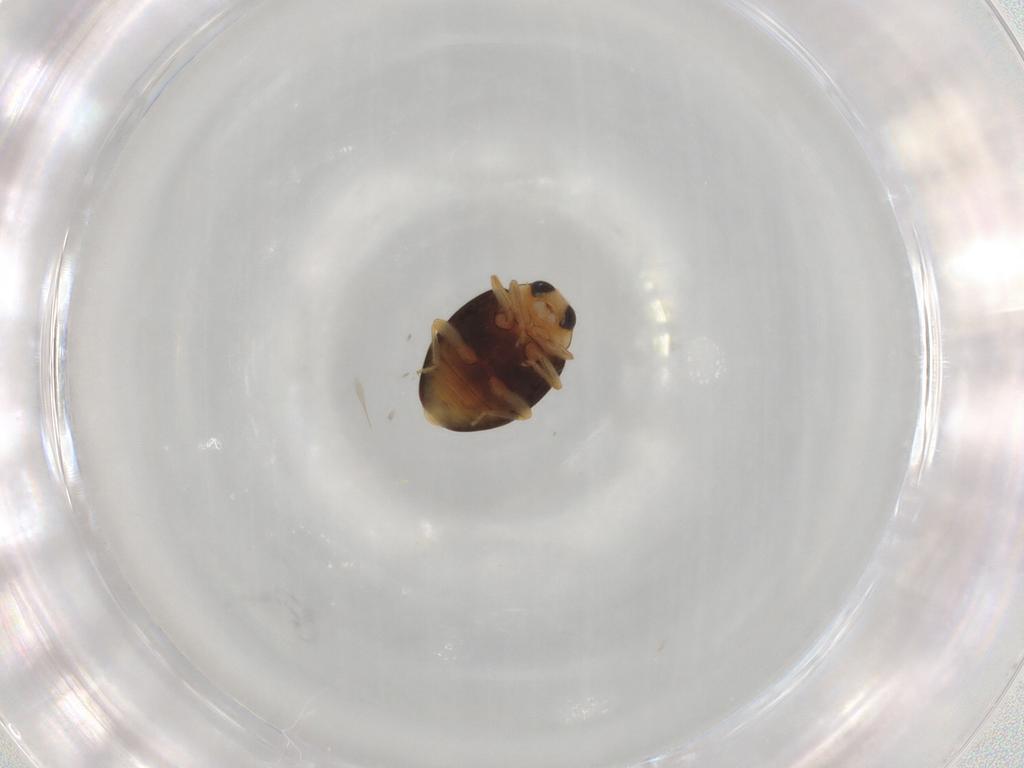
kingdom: Animalia
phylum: Arthropoda
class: Insecta
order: Coleoptera
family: Coccinellidae
